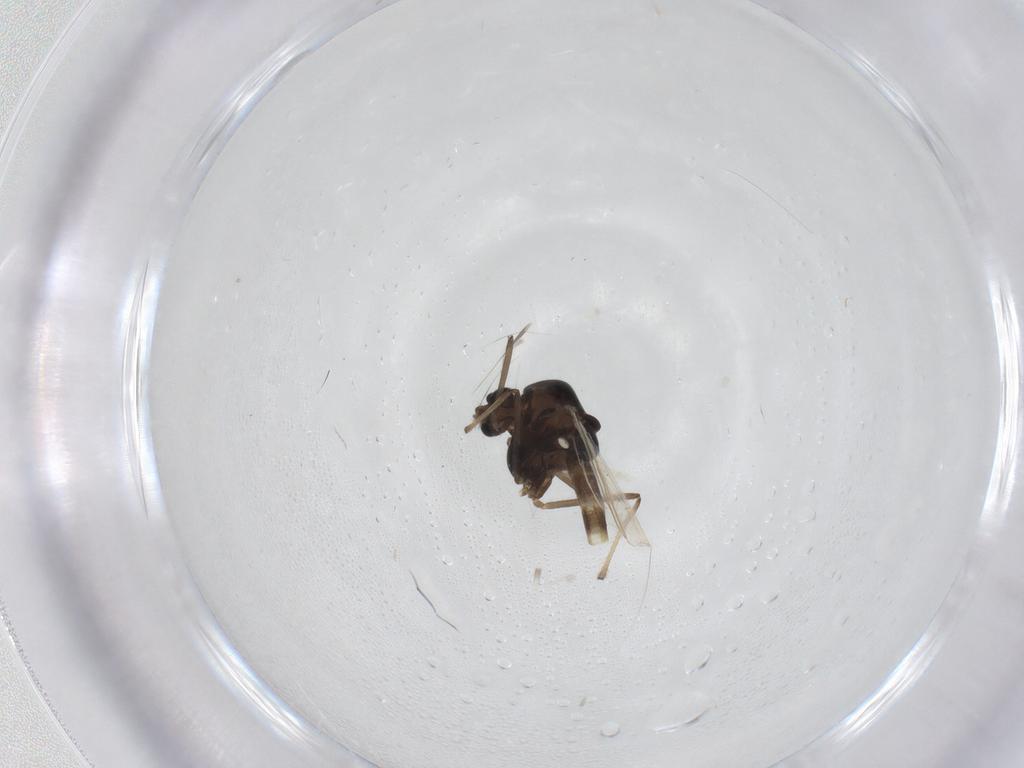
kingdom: Animalia
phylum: Arthropoda
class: Insecta
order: Diptera
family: Chironomidae
